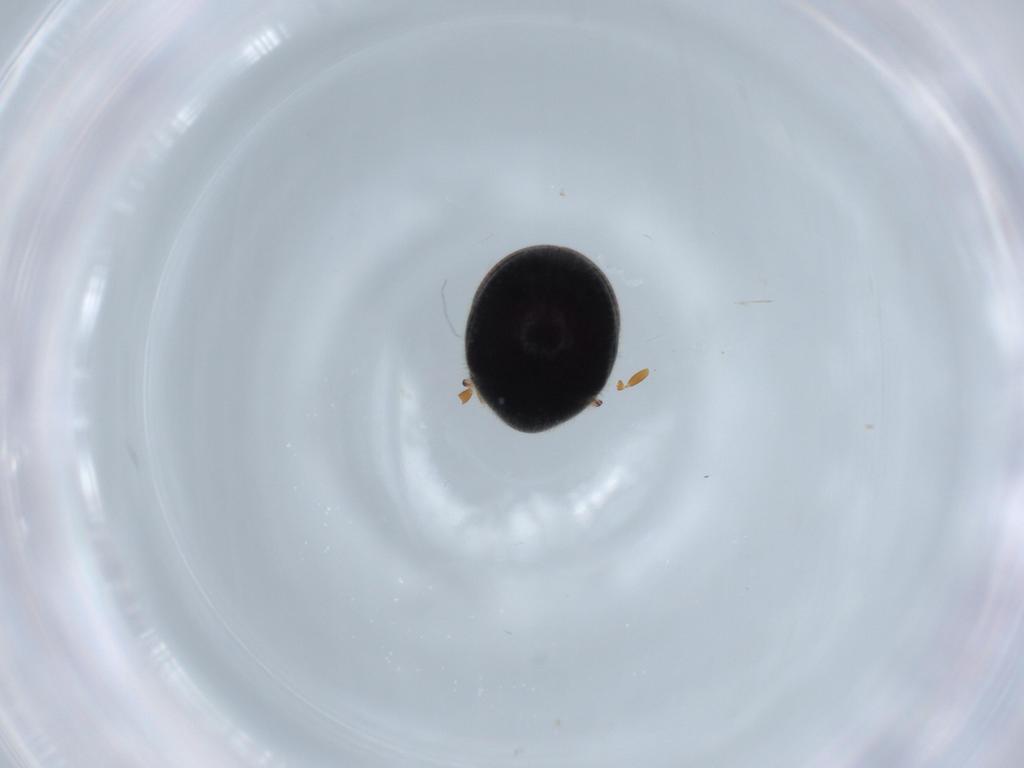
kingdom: Animalia
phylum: Arthropoda
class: Insecta
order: Coleoptera
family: Ptinidae
